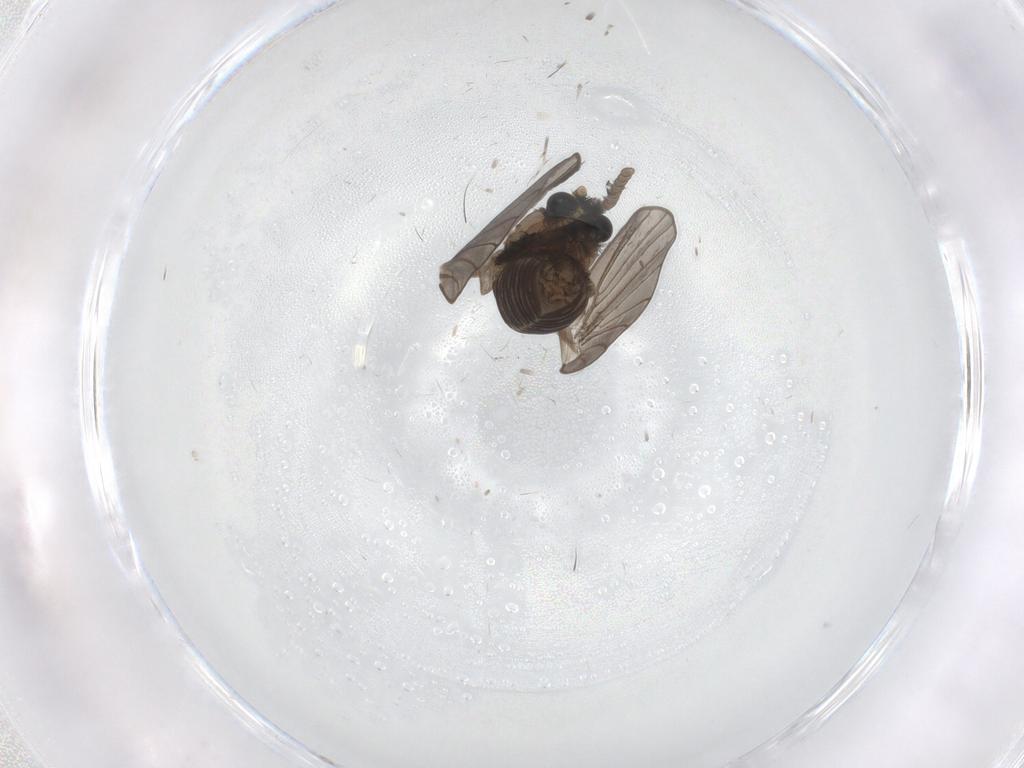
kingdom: Animalia
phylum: Arthropoda
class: Insecta
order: Diptera
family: Psychodidae
